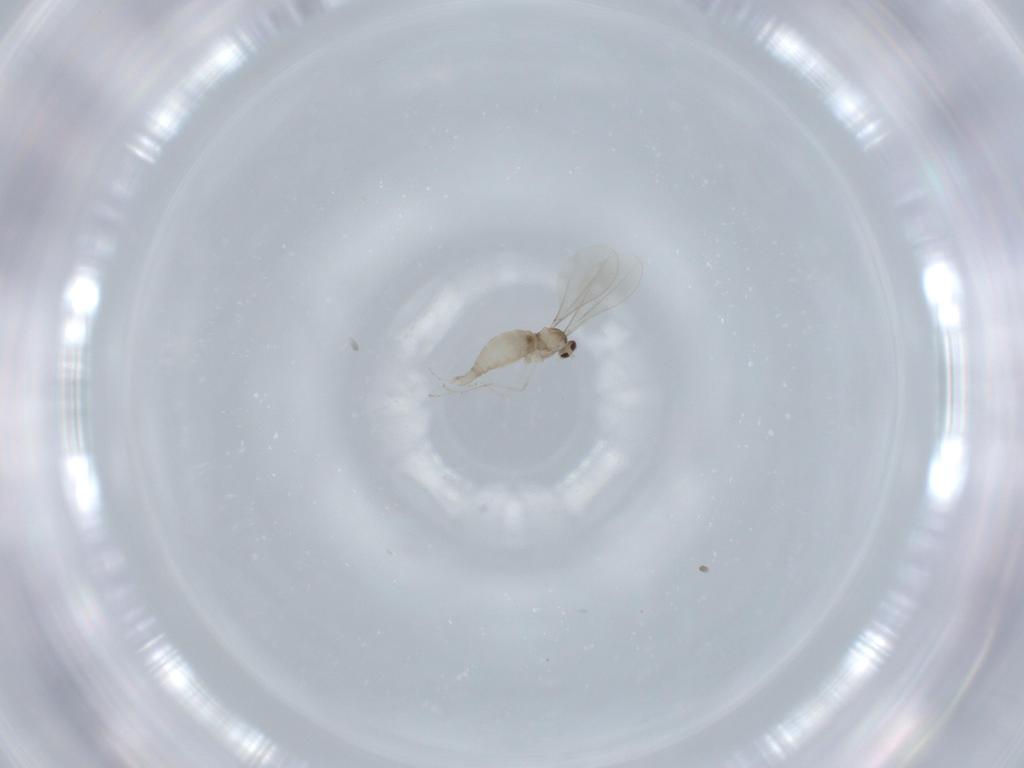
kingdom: Animalia
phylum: Arthropoda
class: Insecta
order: Diptera
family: Cecidomyiidae
